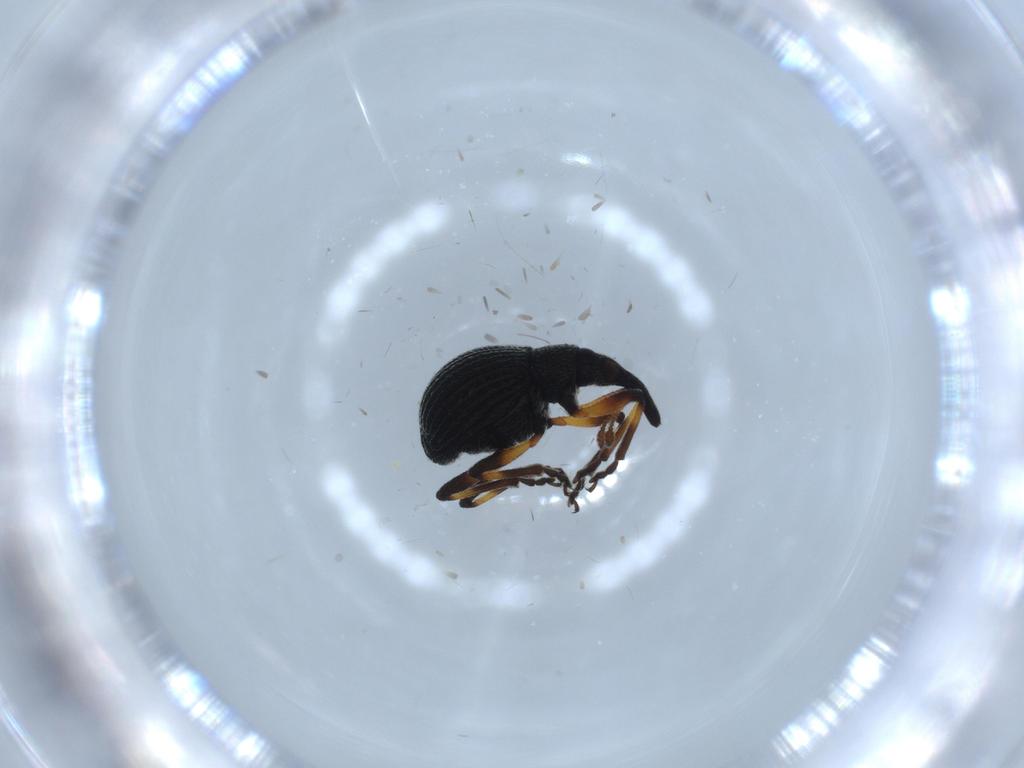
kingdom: Animalia
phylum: Arthropoda
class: Insecta
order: Coleoptera
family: Brentidae
